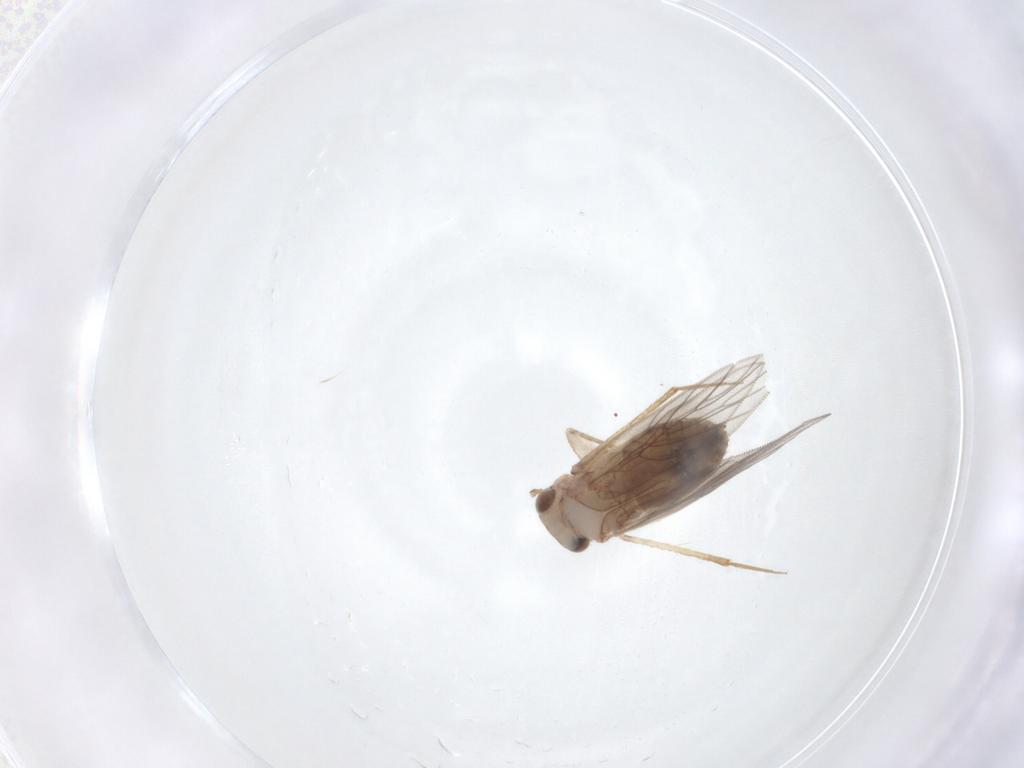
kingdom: Animalia
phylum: Arthropoda
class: Insecta
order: Psocodea
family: Lepidopsocidae
